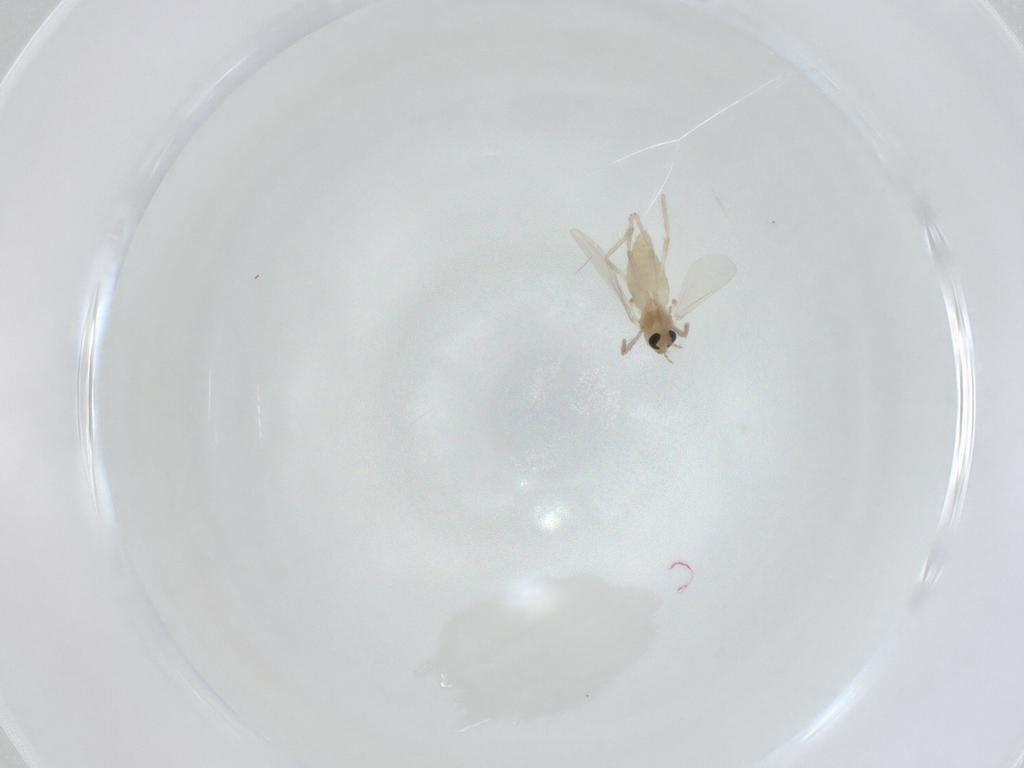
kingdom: Animalia
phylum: Arthropoda
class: Insecta
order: Diptera
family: Chironomidae
